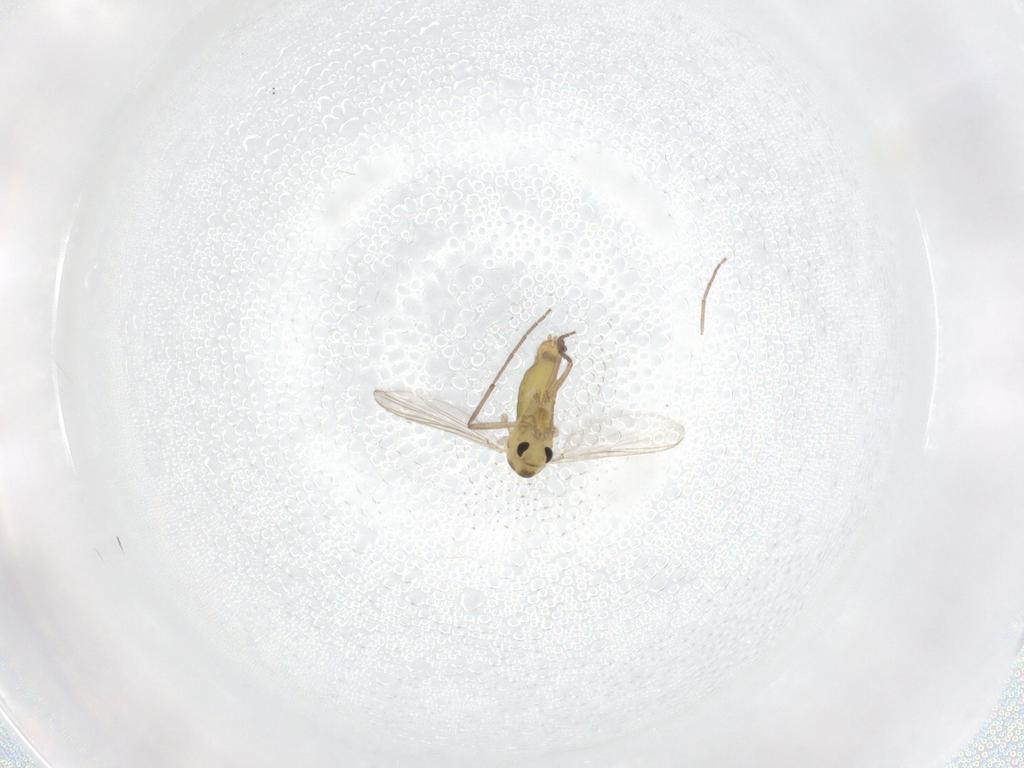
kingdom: Animalia
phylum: Arthropoda
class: Insecta
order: Diptera
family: Chironomidae
